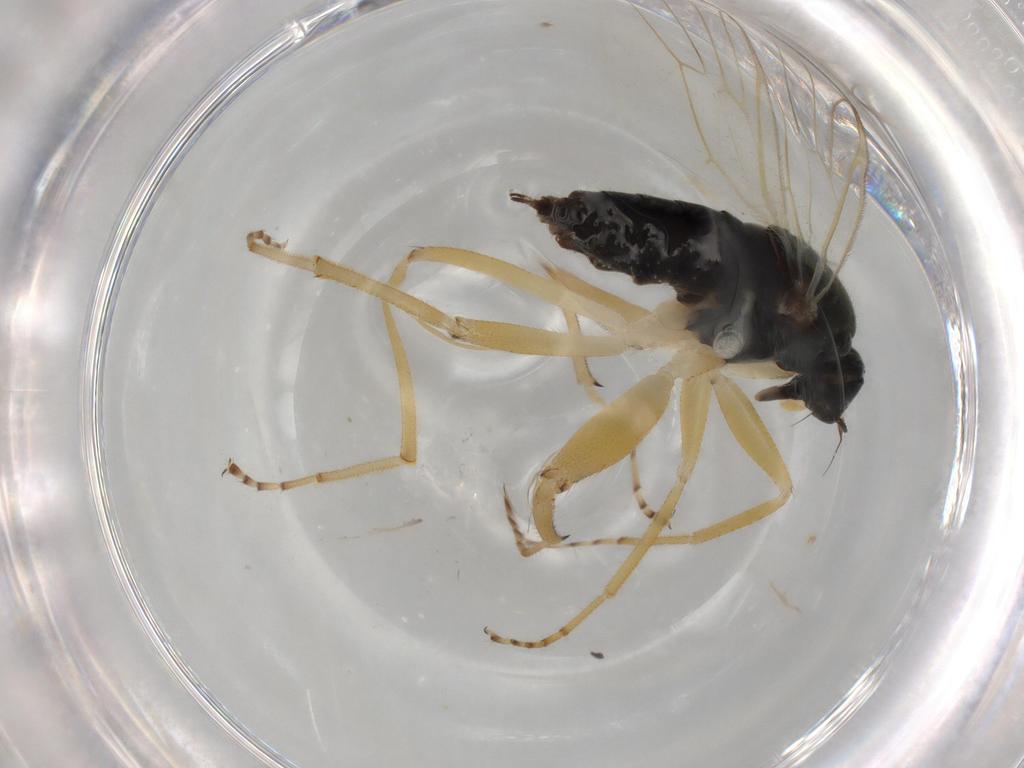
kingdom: Animalia
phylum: Arthropoda
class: Insecta
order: Diptera
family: Hybotidae
